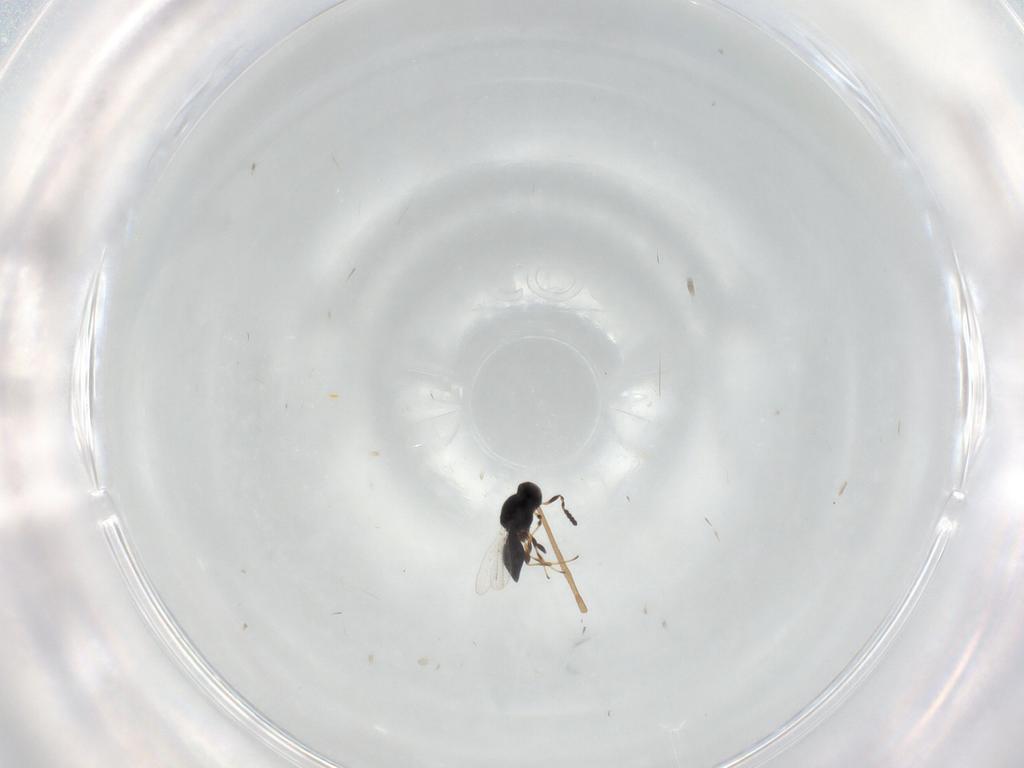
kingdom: Animalia
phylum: Arthropoda
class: Insecta
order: Hymenoptera
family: Platygastridae
